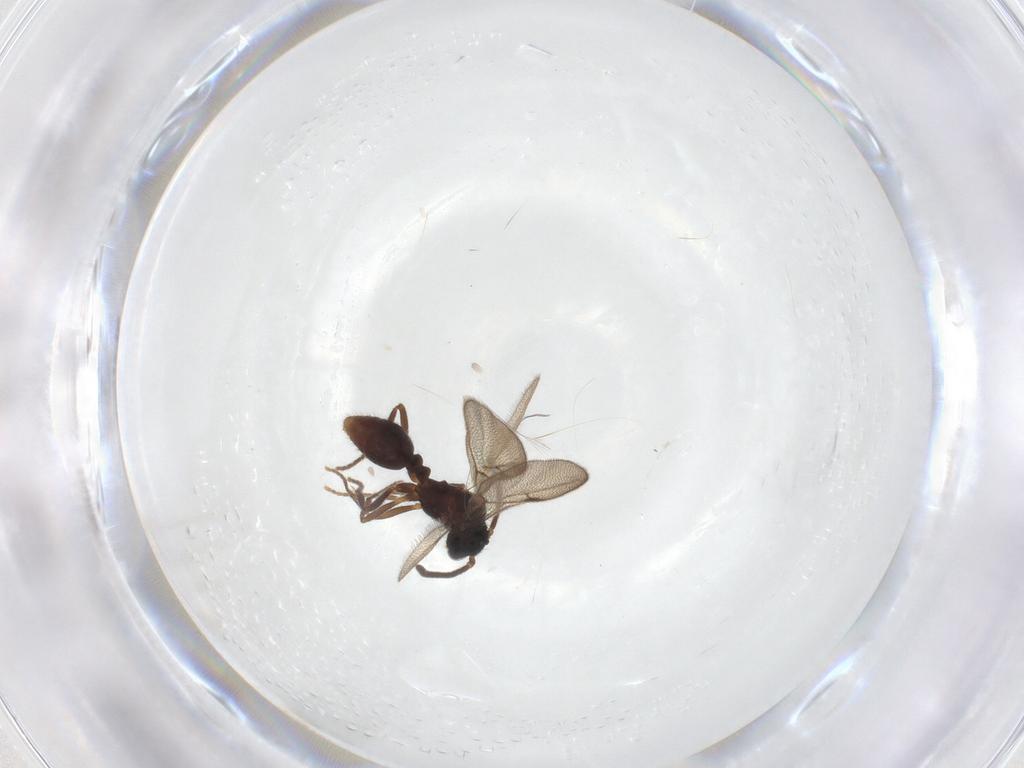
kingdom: Animalia
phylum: Arthropoda
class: Insecta
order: Hymenoptera
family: Formicidae
